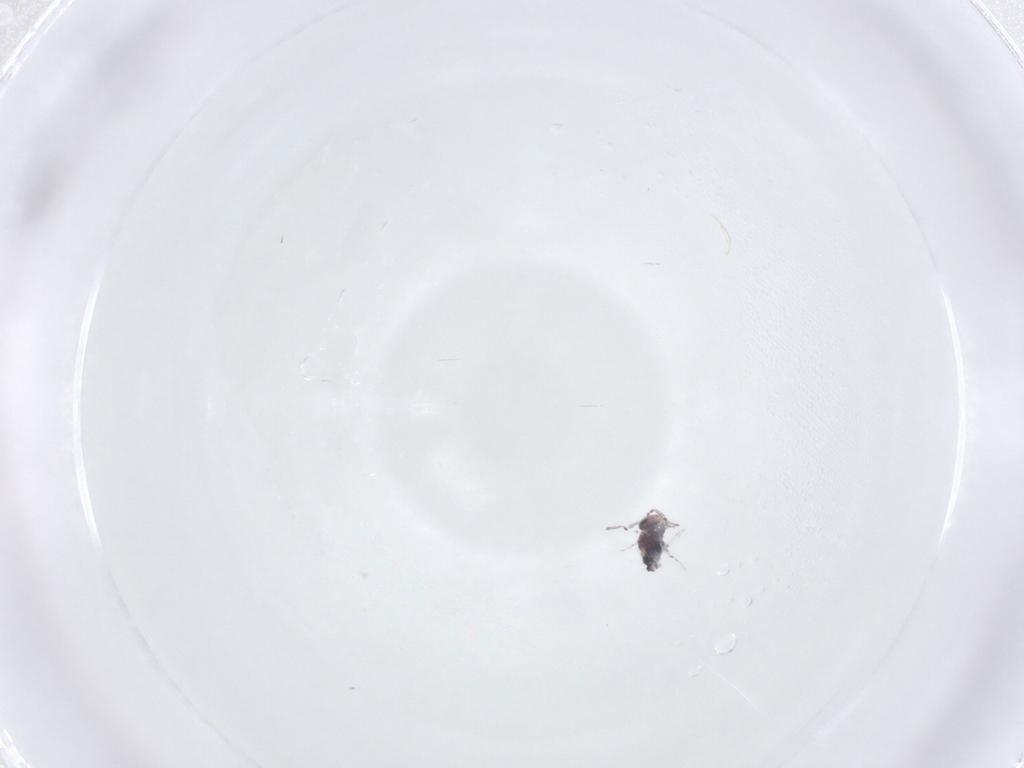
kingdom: Animalia
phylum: Arthropoda
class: Collembola
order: Symphypleona
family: Bourletiellidae
